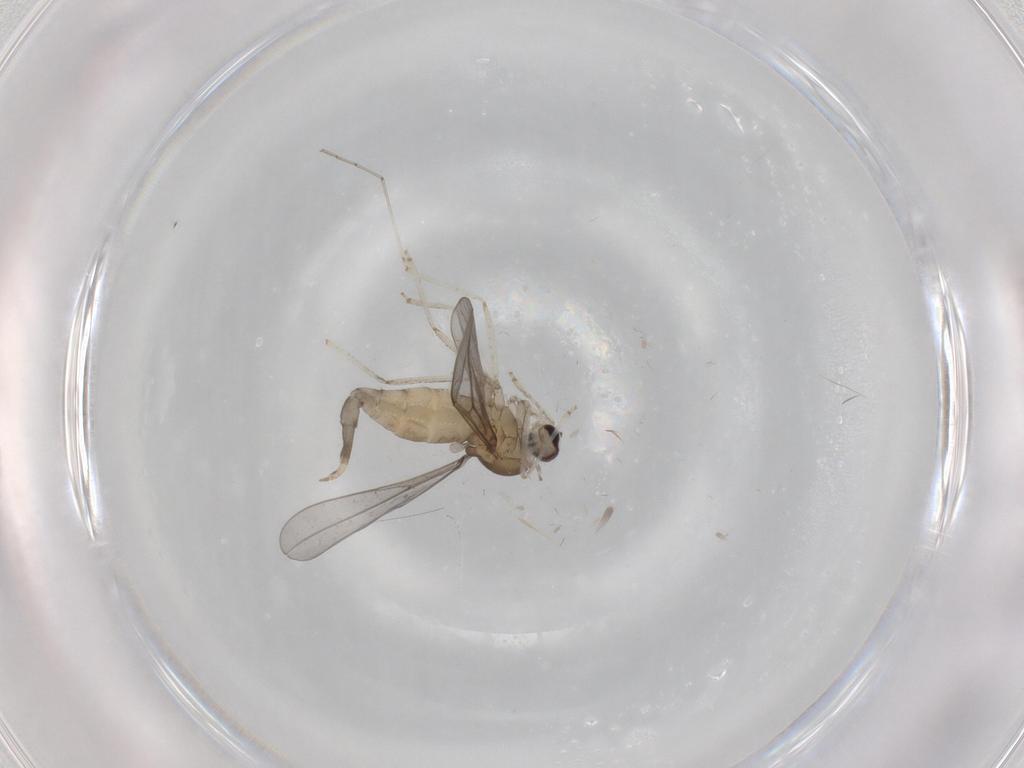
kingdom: Animalia
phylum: Arthropoda
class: Insecta
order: Diptera
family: Cecidomyiidae
